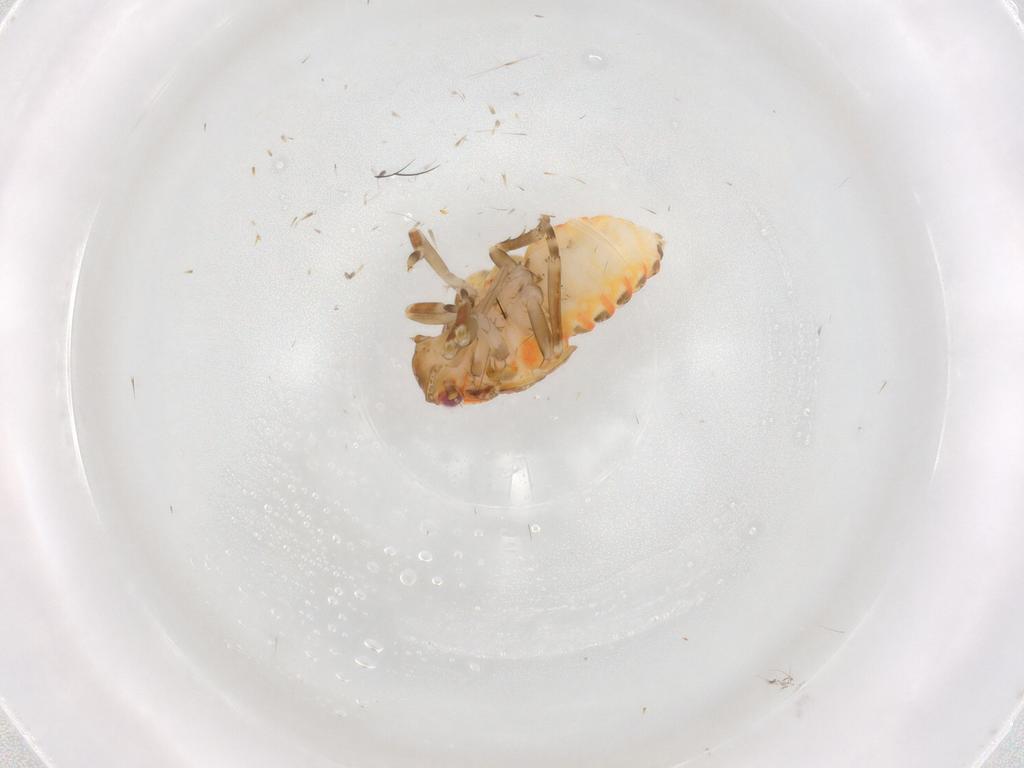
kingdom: Animalia
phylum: Arthropoda
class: Insecta
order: Hemiptera
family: Flatidae
